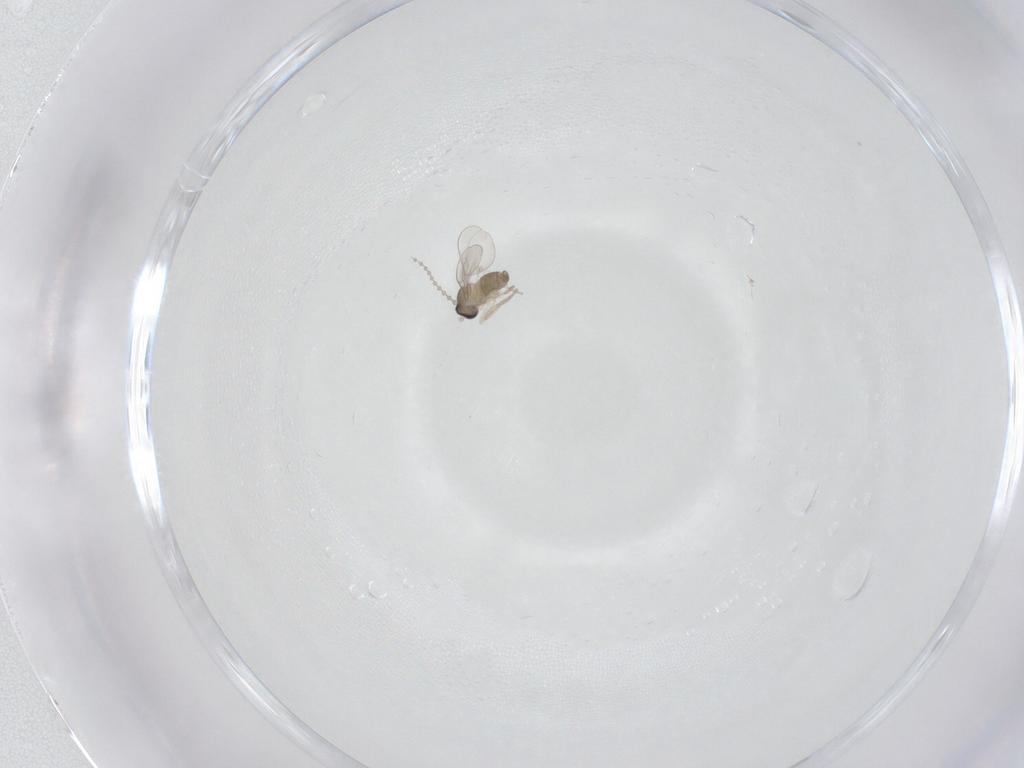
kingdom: Animalia
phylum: Arthropoda
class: Insecta
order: Diptera
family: Cecidomyiidae
